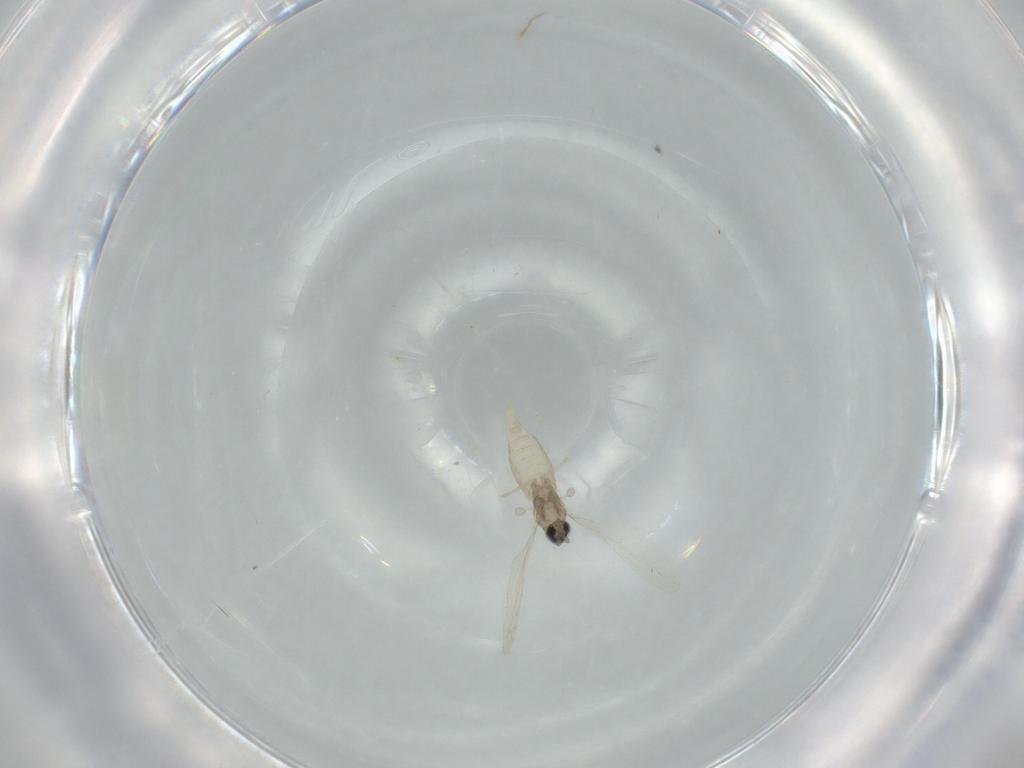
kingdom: Animalia
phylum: Arthropoda
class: Insecta
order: Diptera
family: Cecidomyiidae
